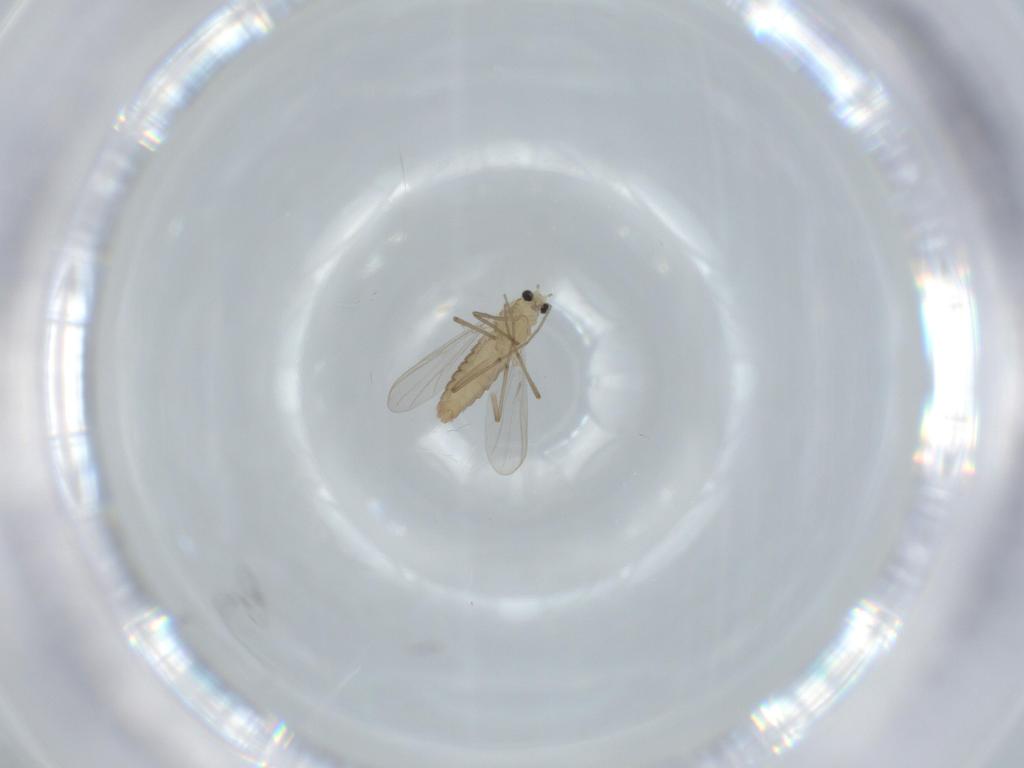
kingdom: Animalia
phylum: Arthropoda
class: Insecta
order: Diptera
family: Chironomidae
